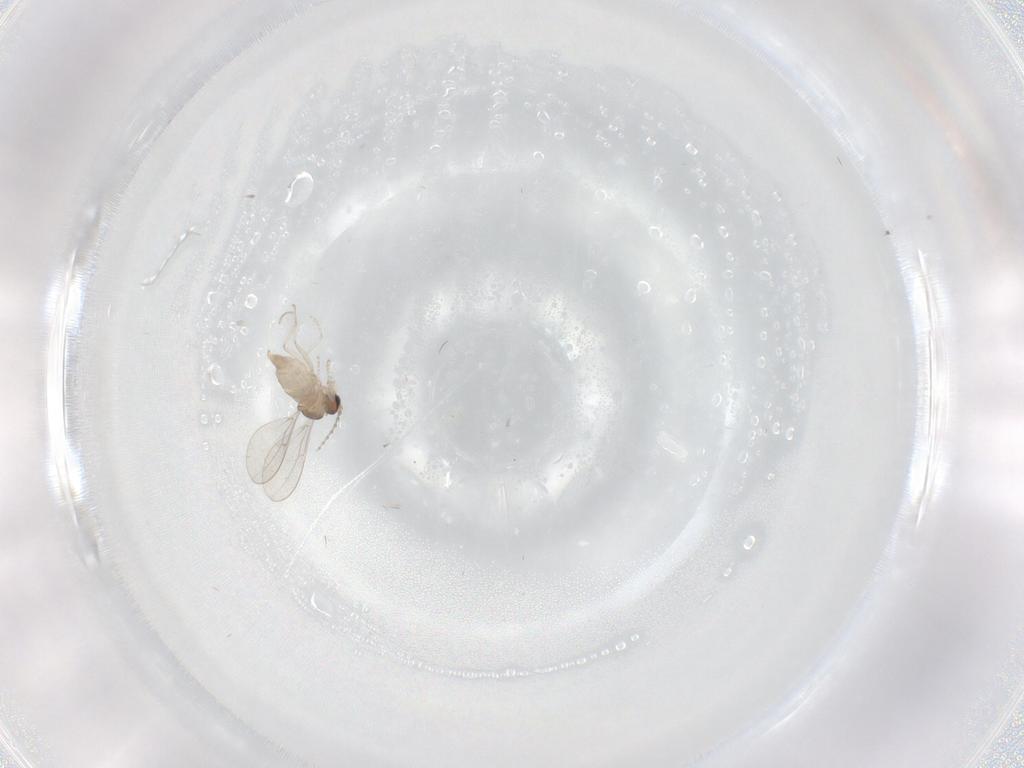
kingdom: Animalia
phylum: Arthropoda
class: Insecta
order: Diptera
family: Cecidomyiidae
